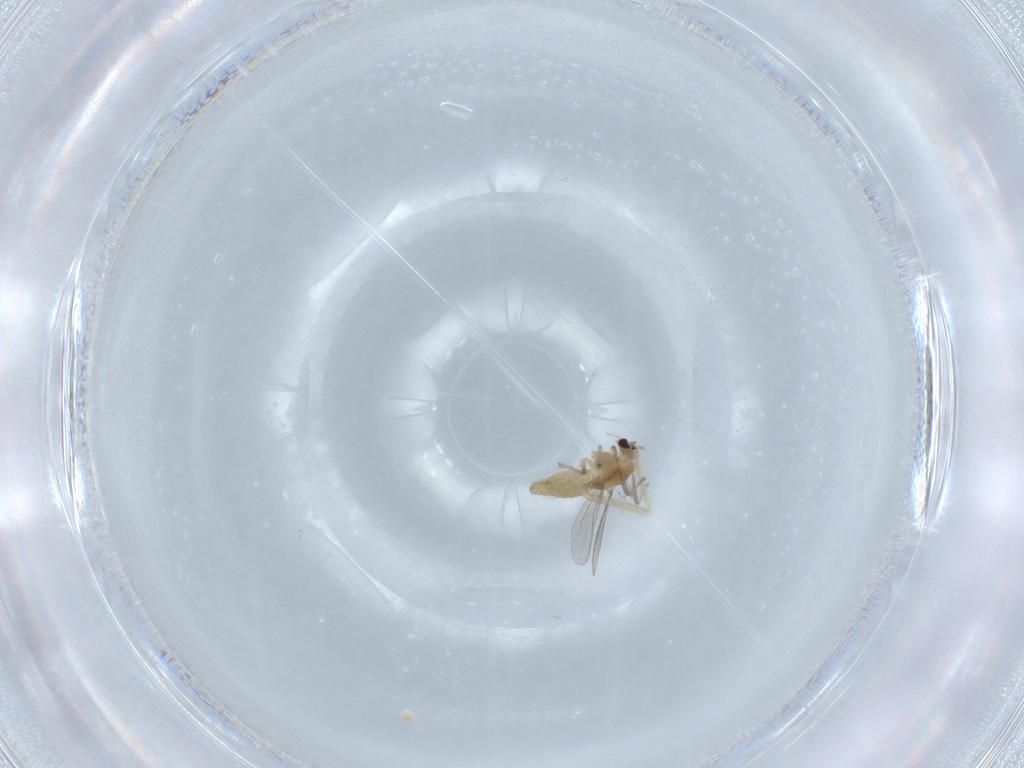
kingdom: Animalia
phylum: Arthropoda
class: Insecta
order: Diptera
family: Chironomidae
